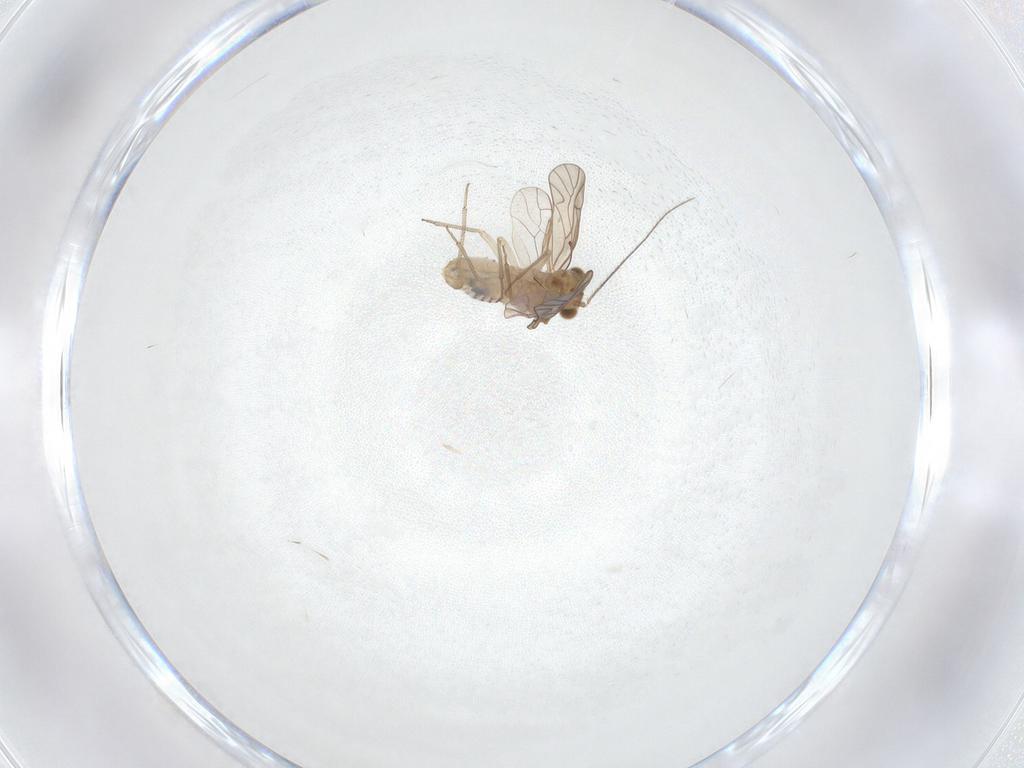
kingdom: Animalia
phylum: Arthropoda
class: Insecta
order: Psocodea
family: Lachesillidae
